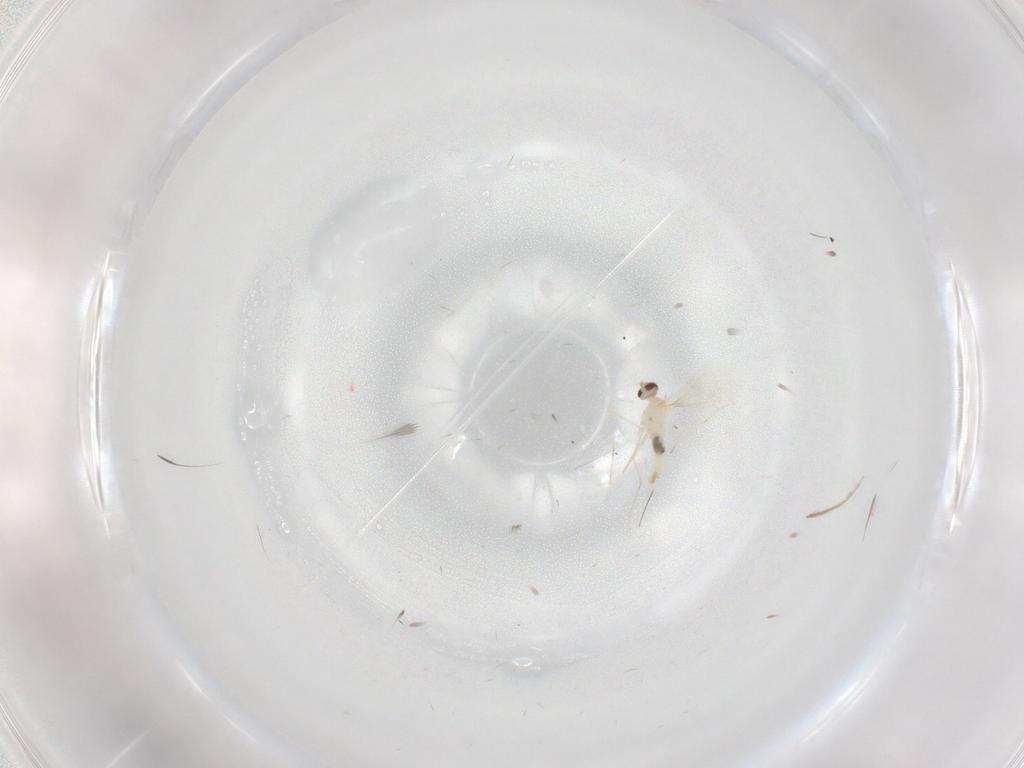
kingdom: Animalia
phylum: Arthropoda
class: Insecta
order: Diptera
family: Cecidomyiidae
